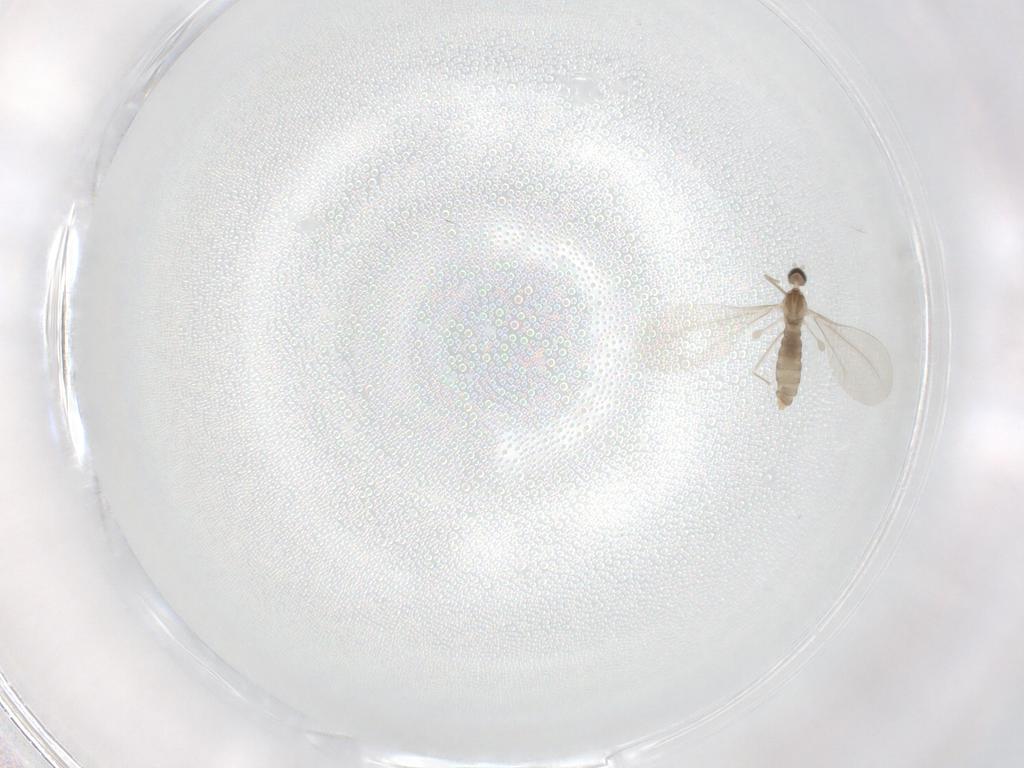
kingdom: Animalia
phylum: Arthropoda
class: Insecta
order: Diptera
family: Cecidomyiidae
